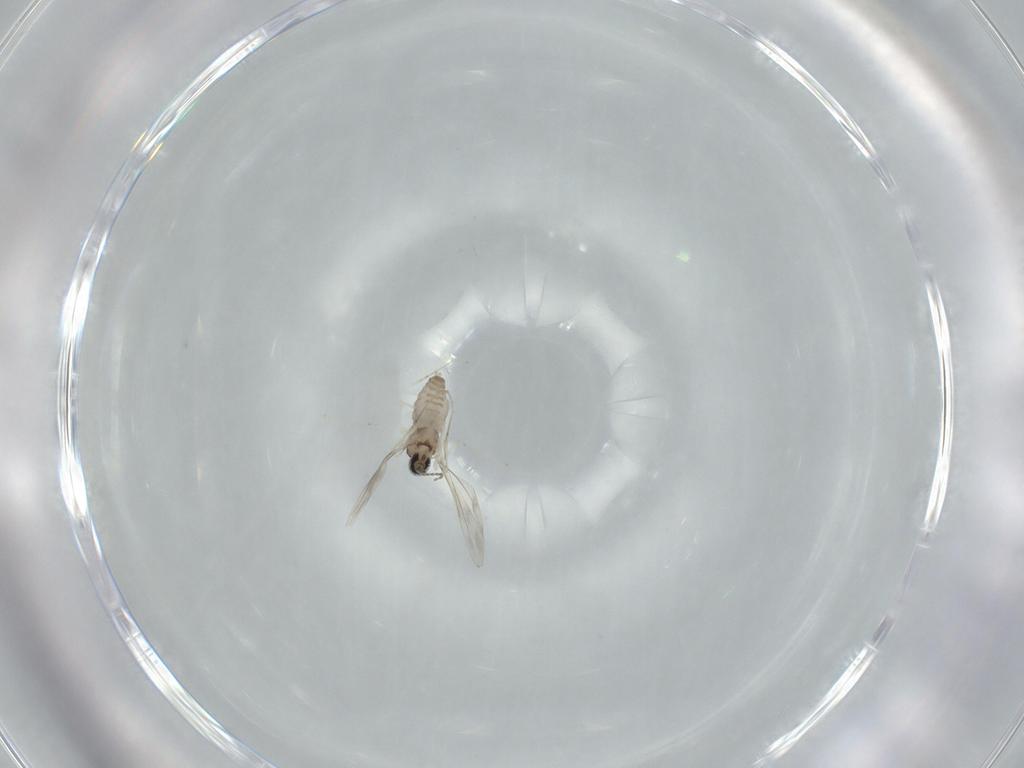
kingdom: Animalia
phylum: Arthropoda
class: Insecta
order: Diptera
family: Cecidomyiidae
